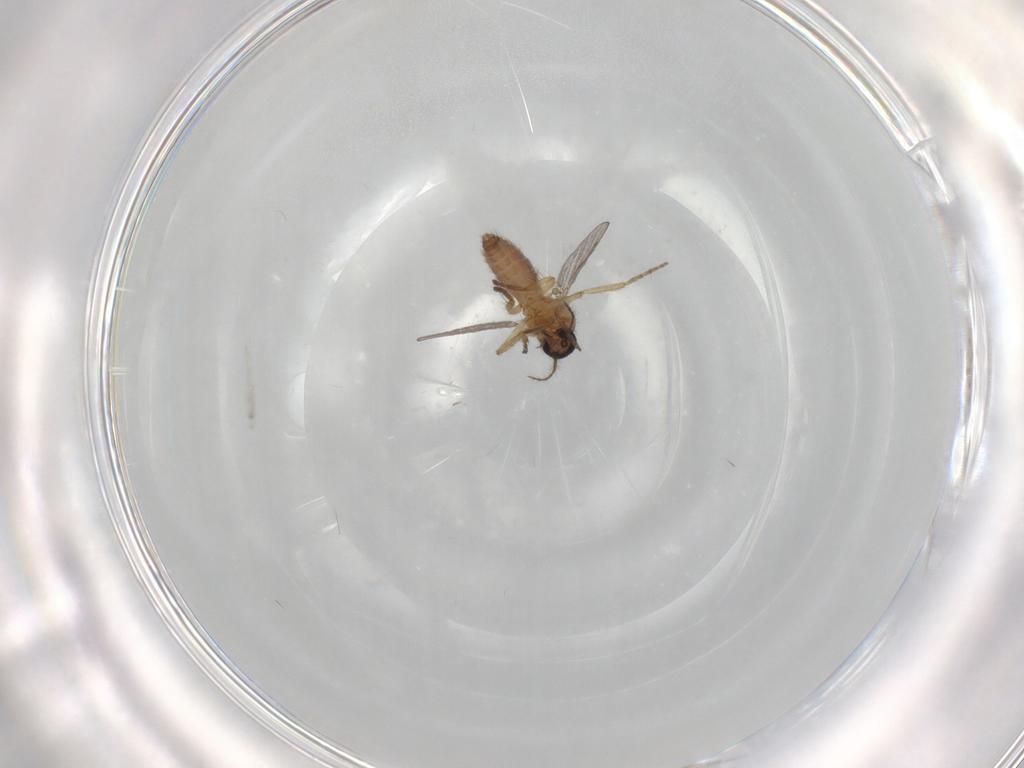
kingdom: Animalia
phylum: Arthropoda
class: Insecta
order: Diptera
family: Ceratopogonidae
